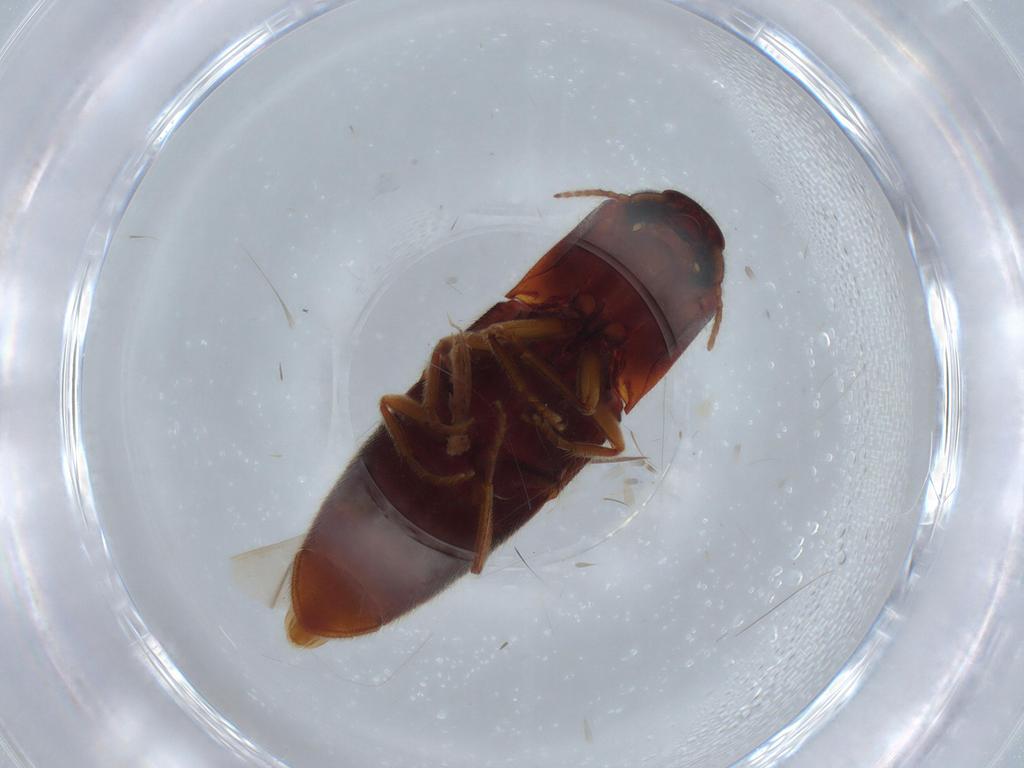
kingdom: Animalia
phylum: Arthropoda
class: Insecta
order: Coleoptera
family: Elateridae
